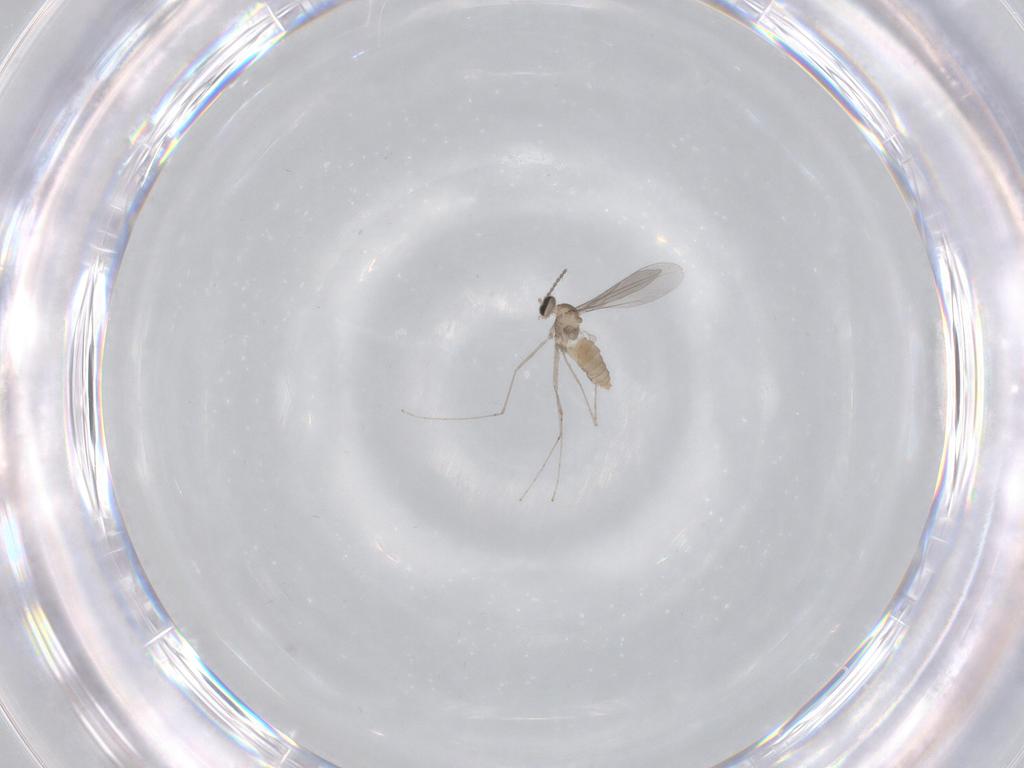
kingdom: Animalia
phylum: Arthropoda
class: Insecta
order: Diptera
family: Cecidomyiidae
